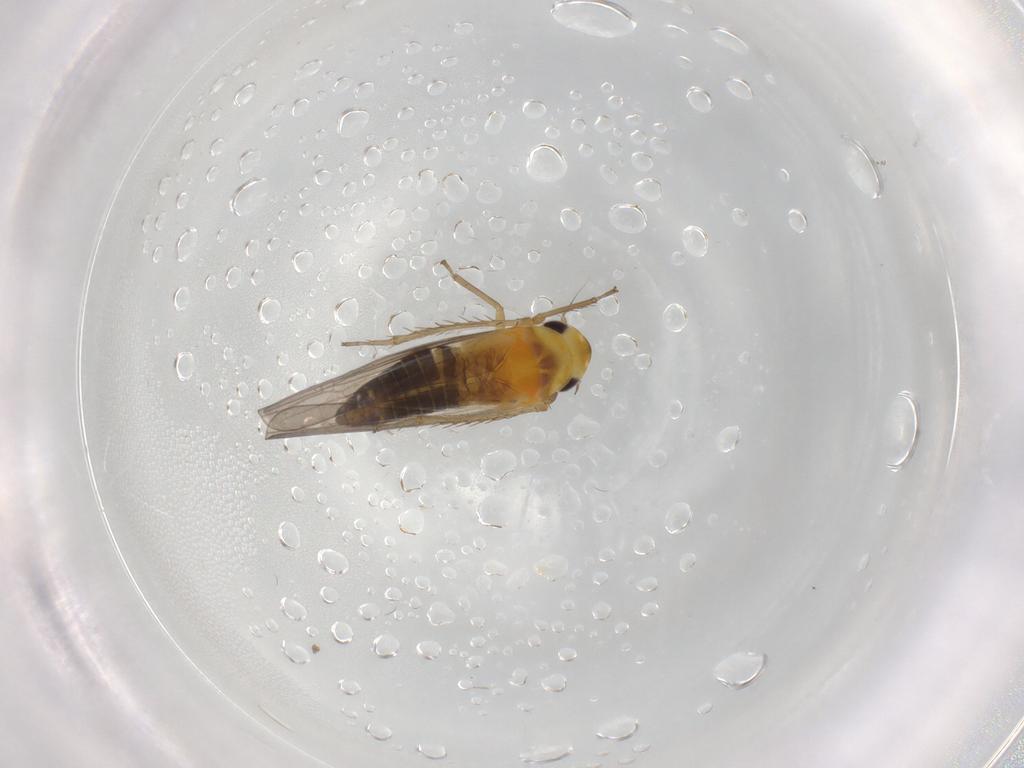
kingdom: Animalia
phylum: Arthropoda
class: Insecta
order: Hemiptera
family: Cicadellidae
